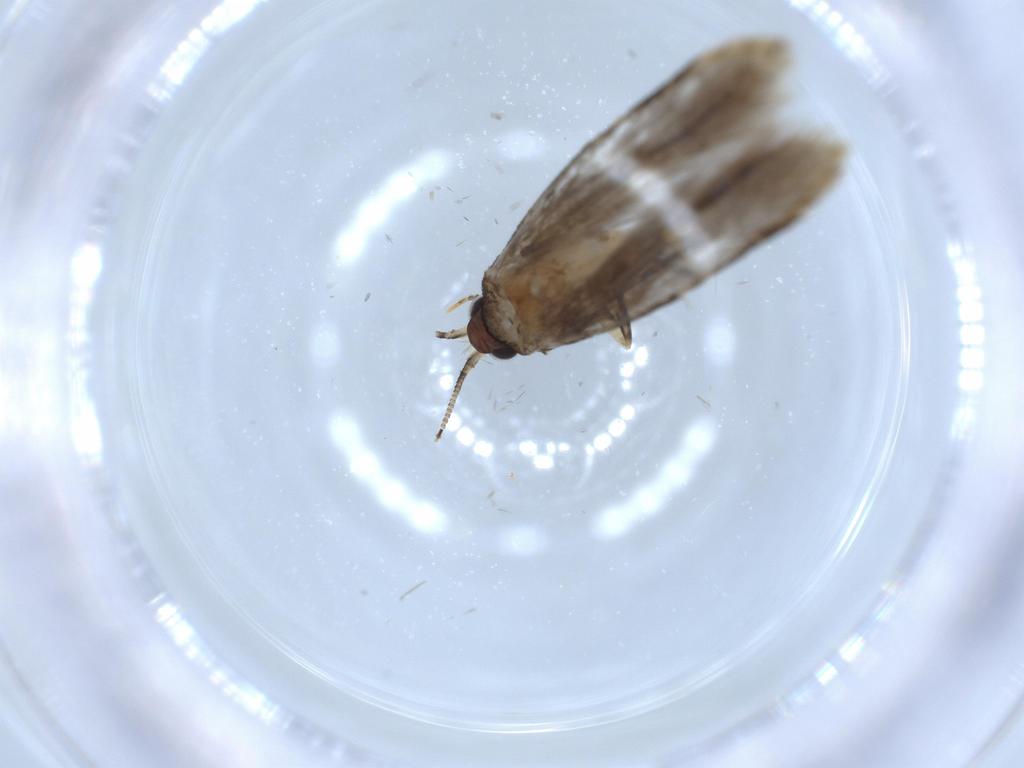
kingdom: Animalia
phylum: Arthropoda
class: Insecta
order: Lepidoptera
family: Tineidae
